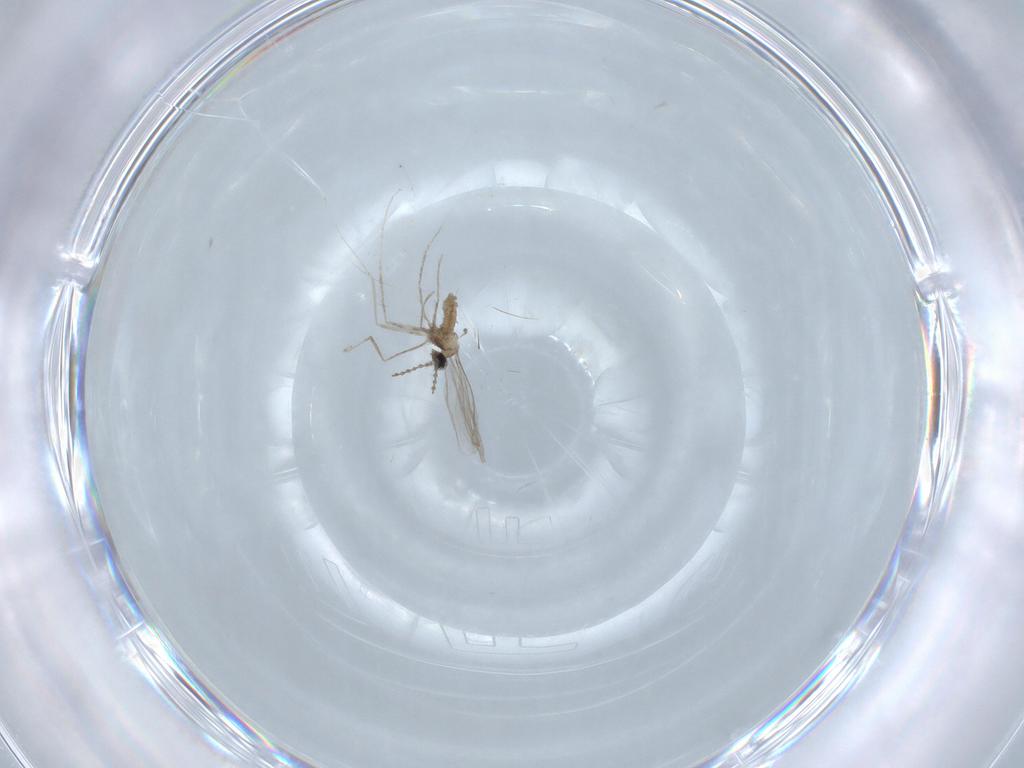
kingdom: Animalia
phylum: Arthropoda
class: Insecta
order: Diptera
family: Cecidomyiidae
